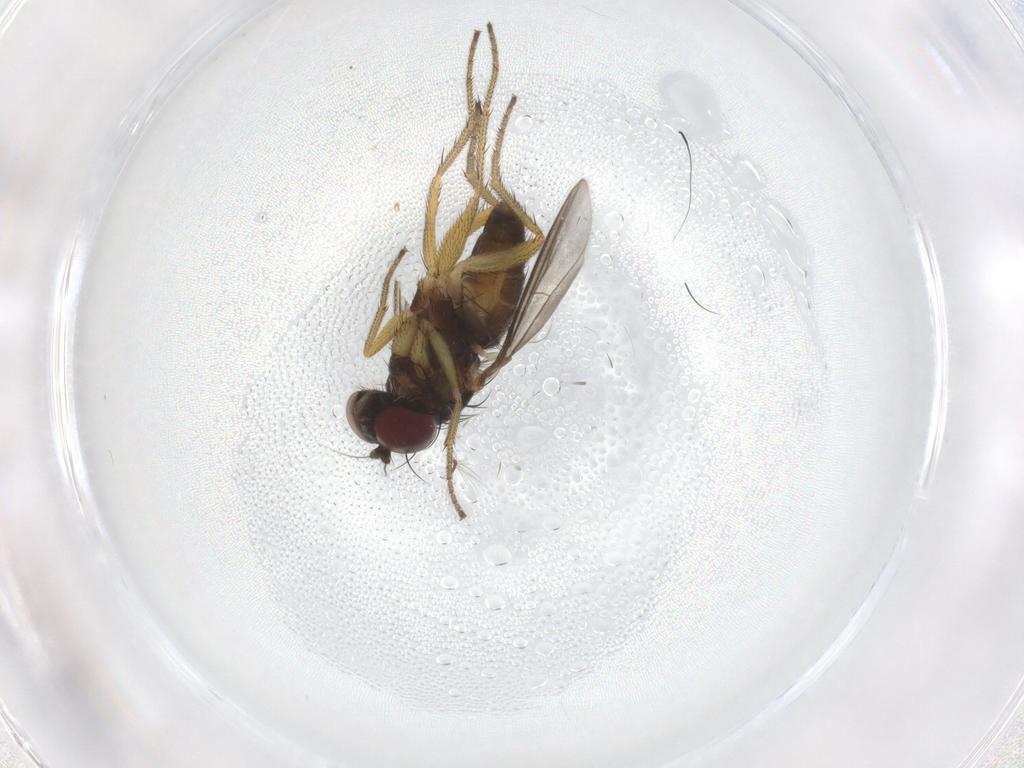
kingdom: Animalia
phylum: Arthropoda
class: Insecta
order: Diptera
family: Chironomidae
